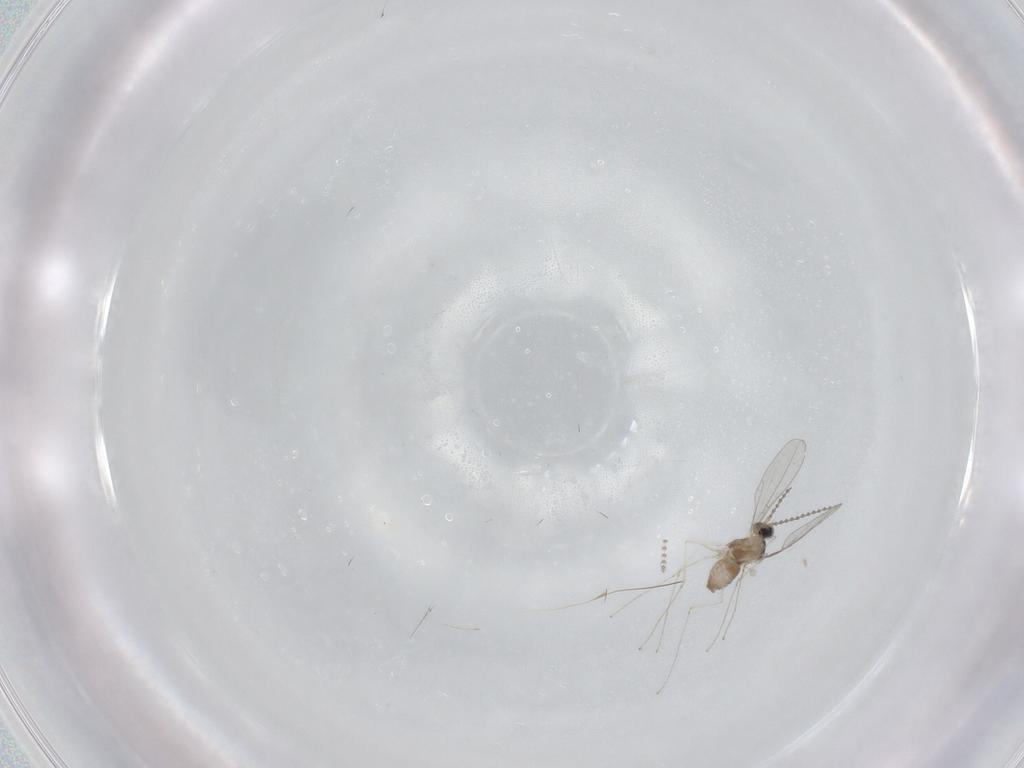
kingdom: Animalia
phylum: Arthropoda
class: Insecta
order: Diptera
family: Cecidomyiidae
